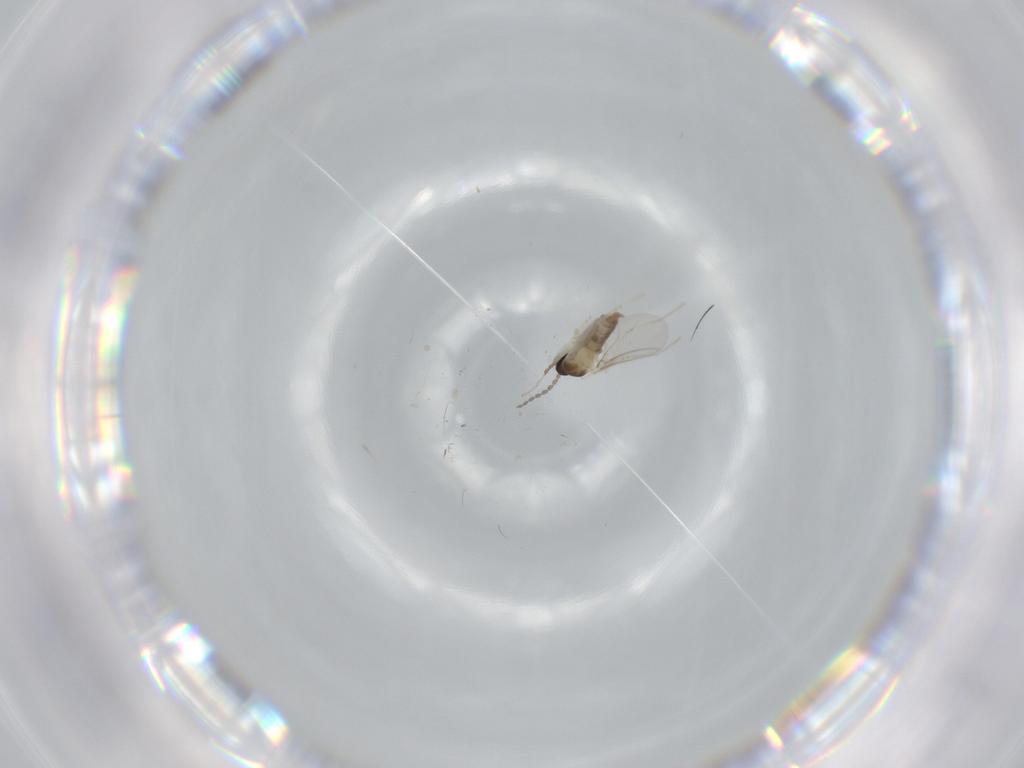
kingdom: Animalia
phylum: Arthropoda
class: Insecta
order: Diptera
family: Cecidomyiidae
